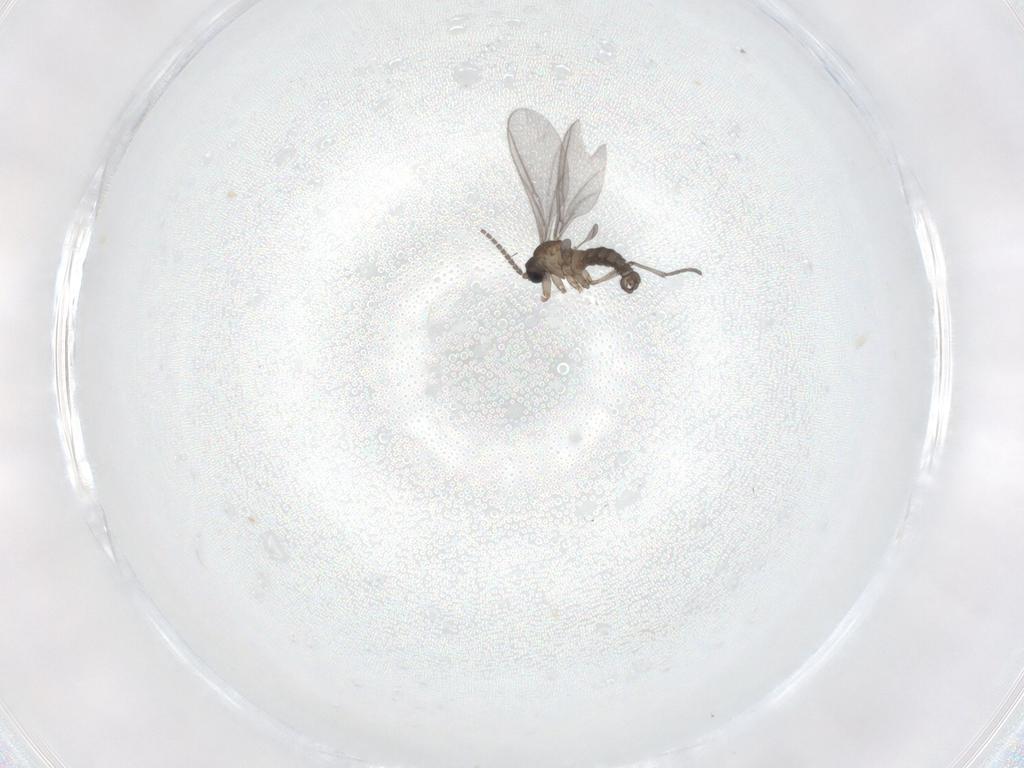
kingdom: Animalia
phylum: Arthropoda
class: Insecta
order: Diptera
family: Sciaridae
